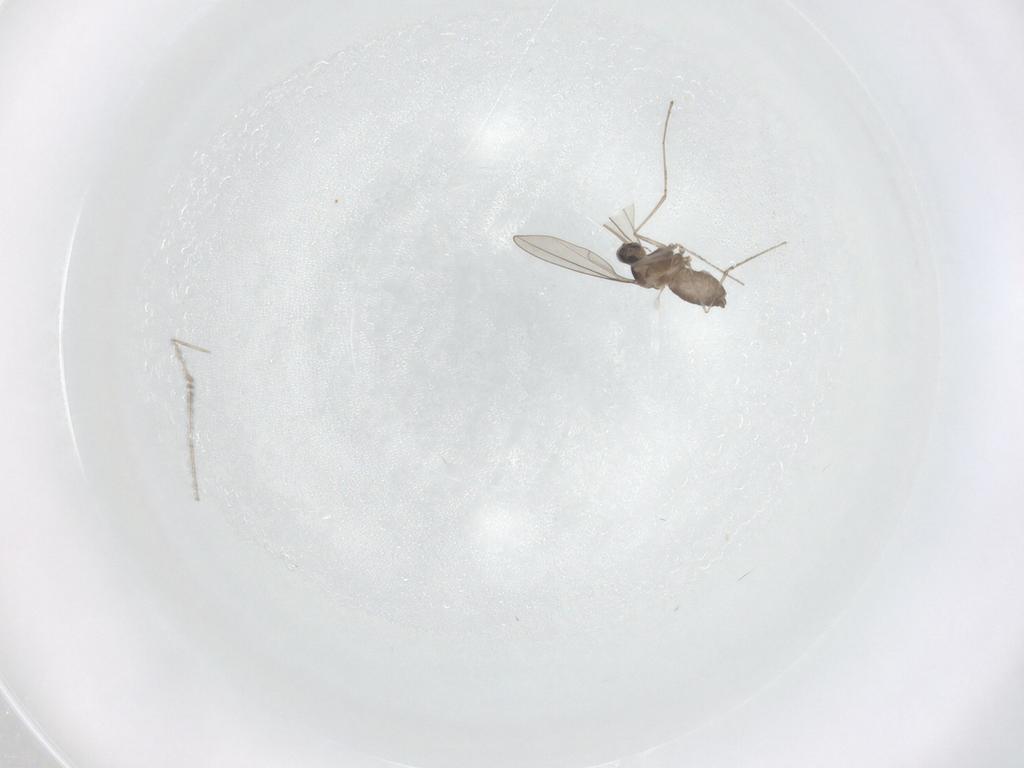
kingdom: Animalia
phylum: Arthropoda
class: Insecta
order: Diptera
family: Cecidomyiidae
